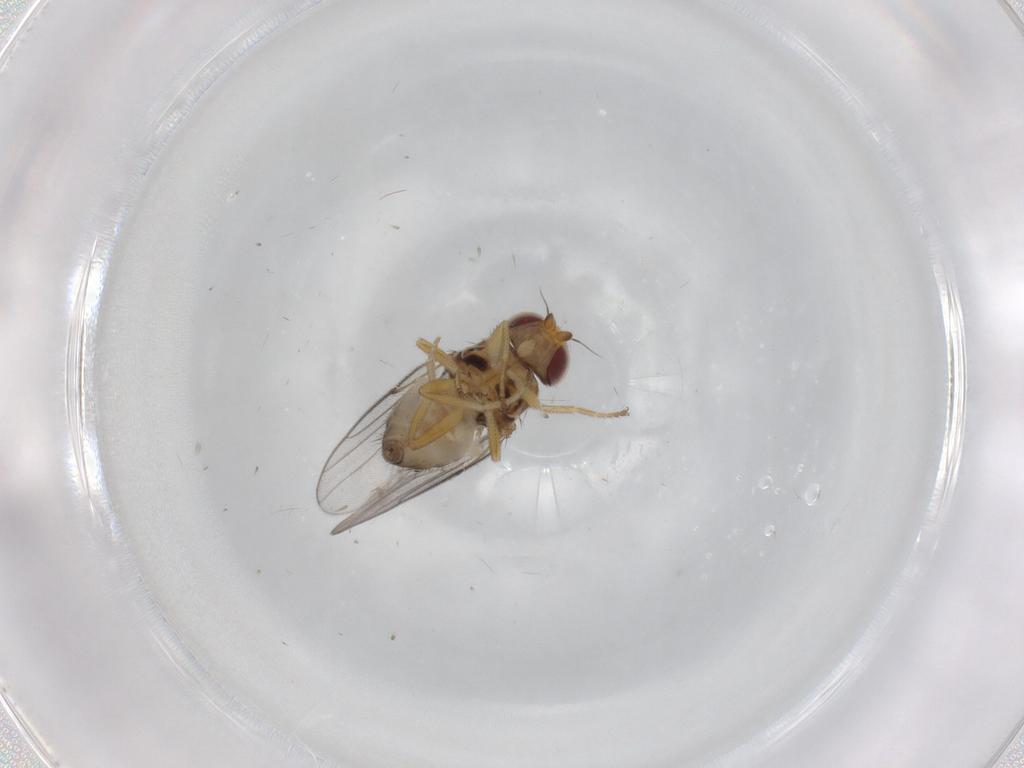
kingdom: Animalia
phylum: Arthropoda
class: Insecta
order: Diptera
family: Chloropidae
